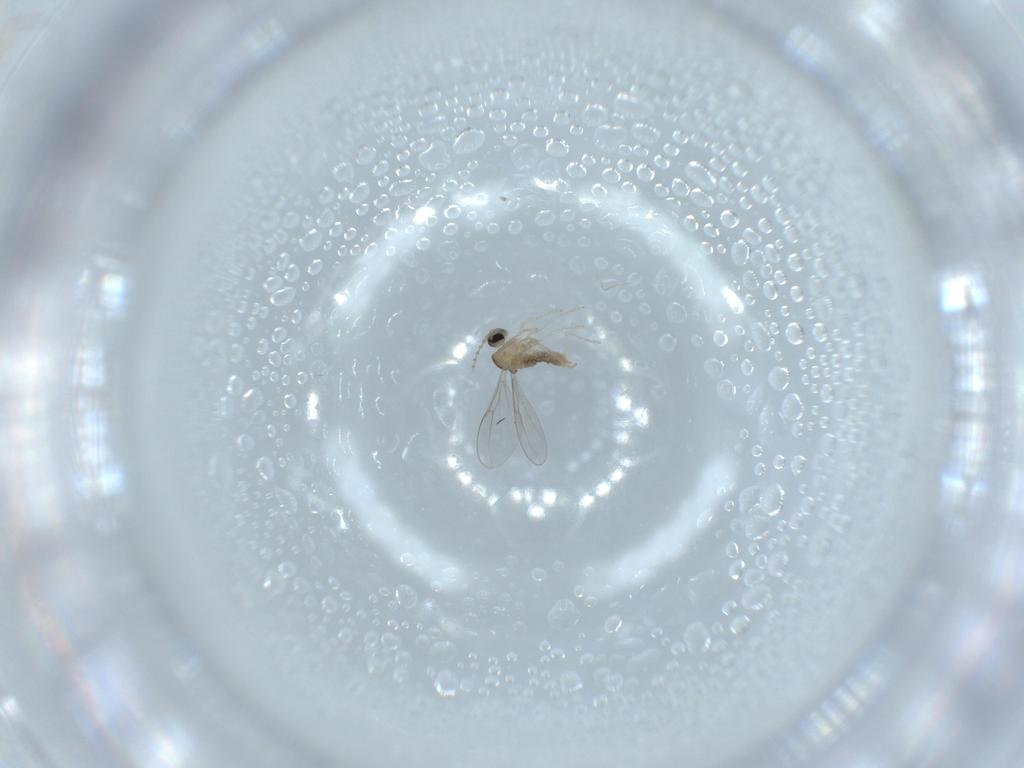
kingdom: Animalia
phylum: Arthropoda
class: Insecta
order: Diptera
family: Cecidomyiidae
